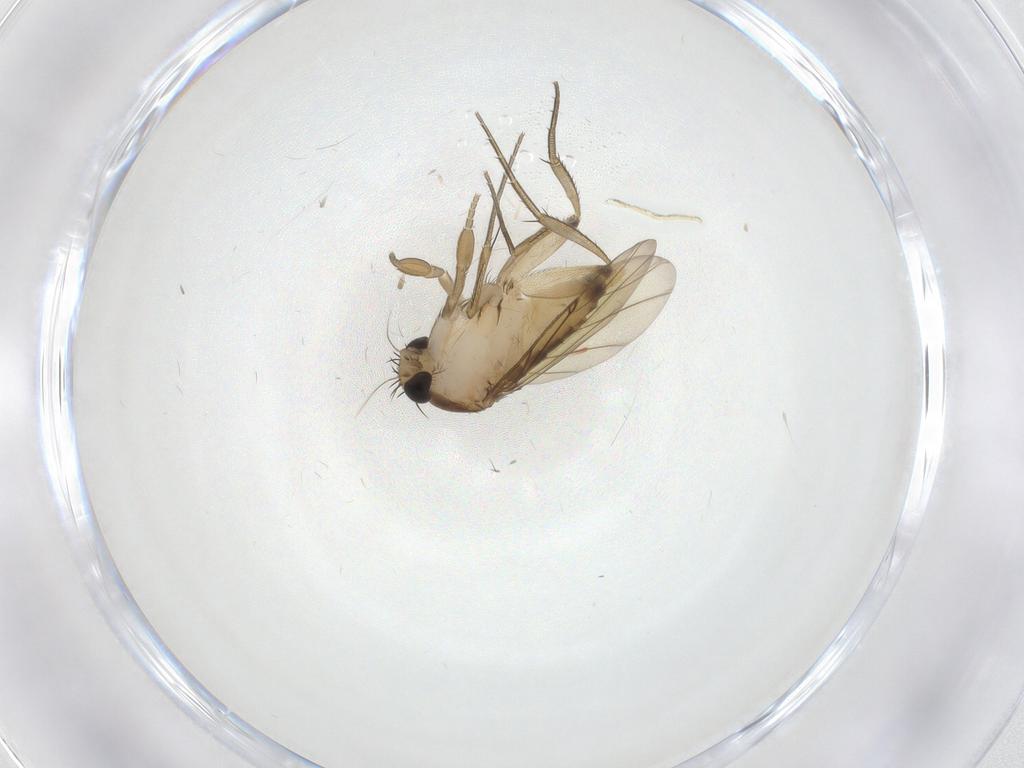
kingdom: Animalia
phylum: Arthropoda
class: Insecta
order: Diptera
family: Phoridae
